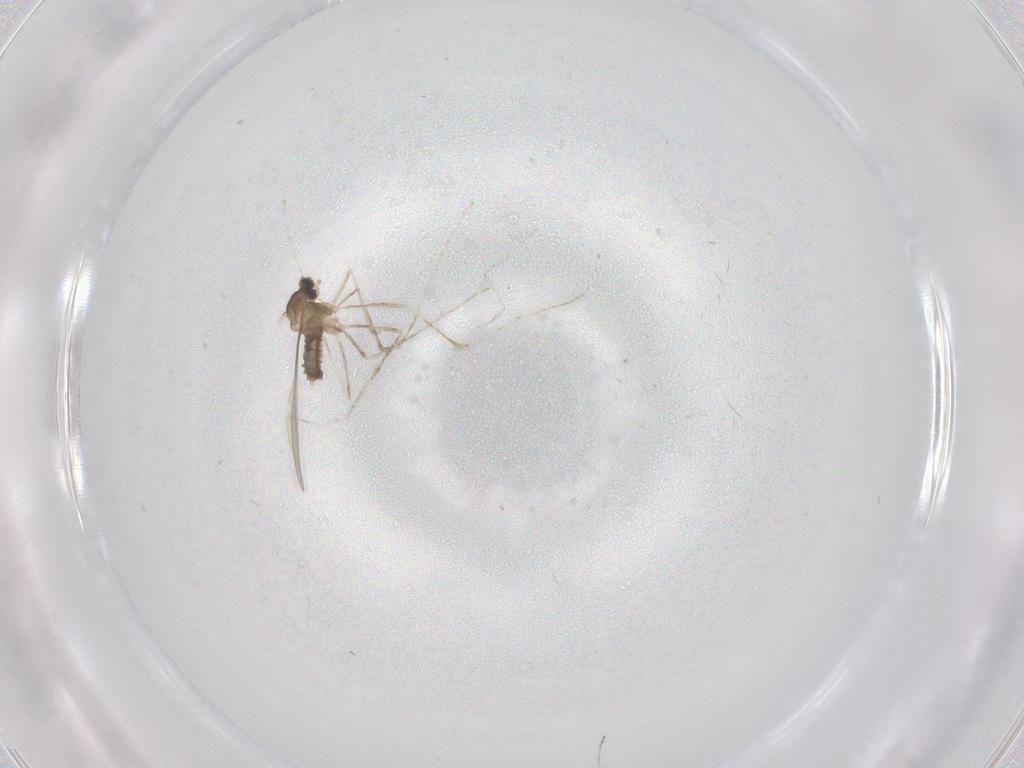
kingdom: Animalia
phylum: Arthropoda
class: Insecta
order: Diptera
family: Cecidomyiidae
